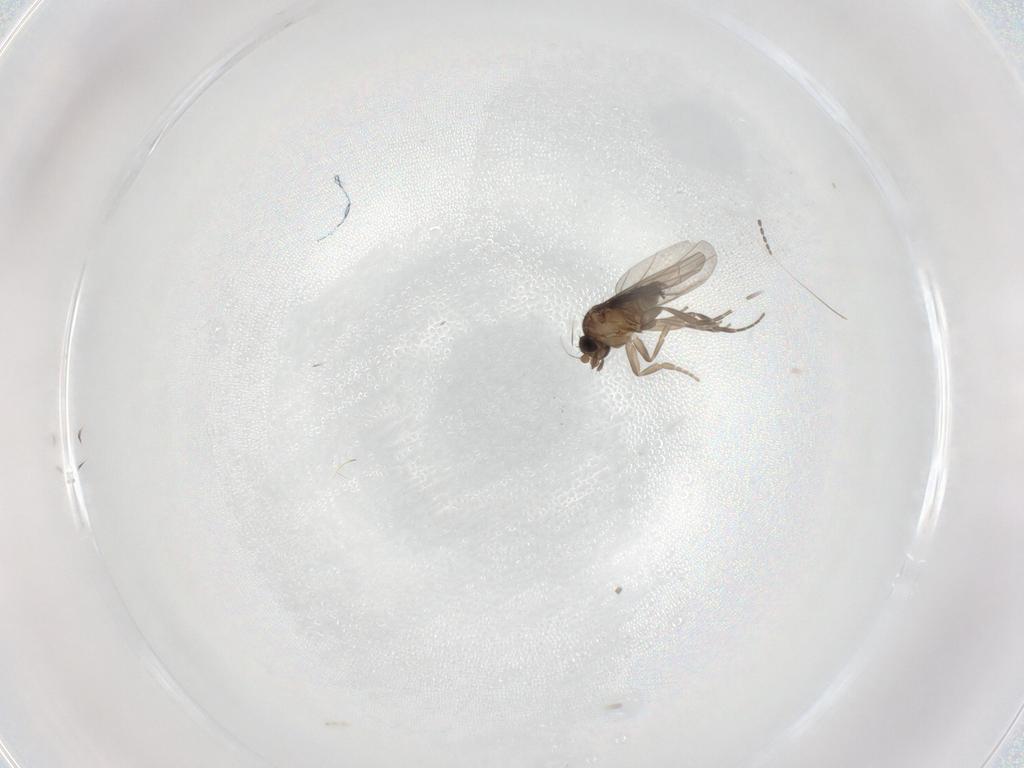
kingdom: Animalia
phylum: Arthropoda
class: Insecta
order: Diptera
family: Cecidomyiidae
